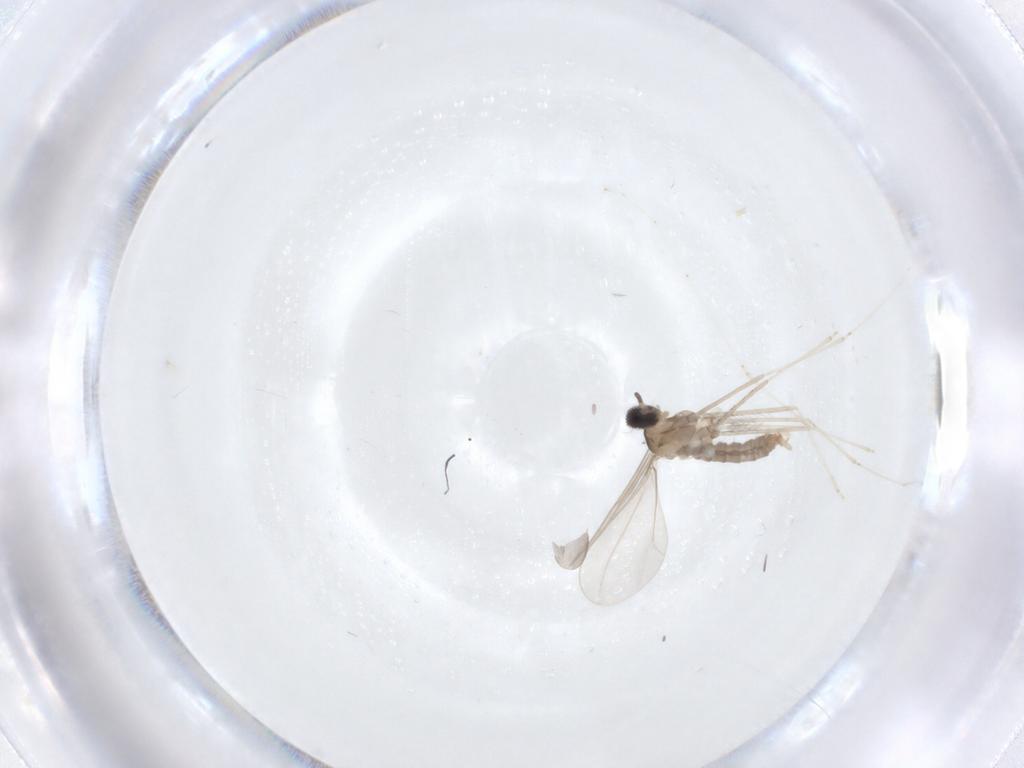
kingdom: Animalia
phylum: Arthropoda
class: Insecta
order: Diptera
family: Cecidomyiidae
